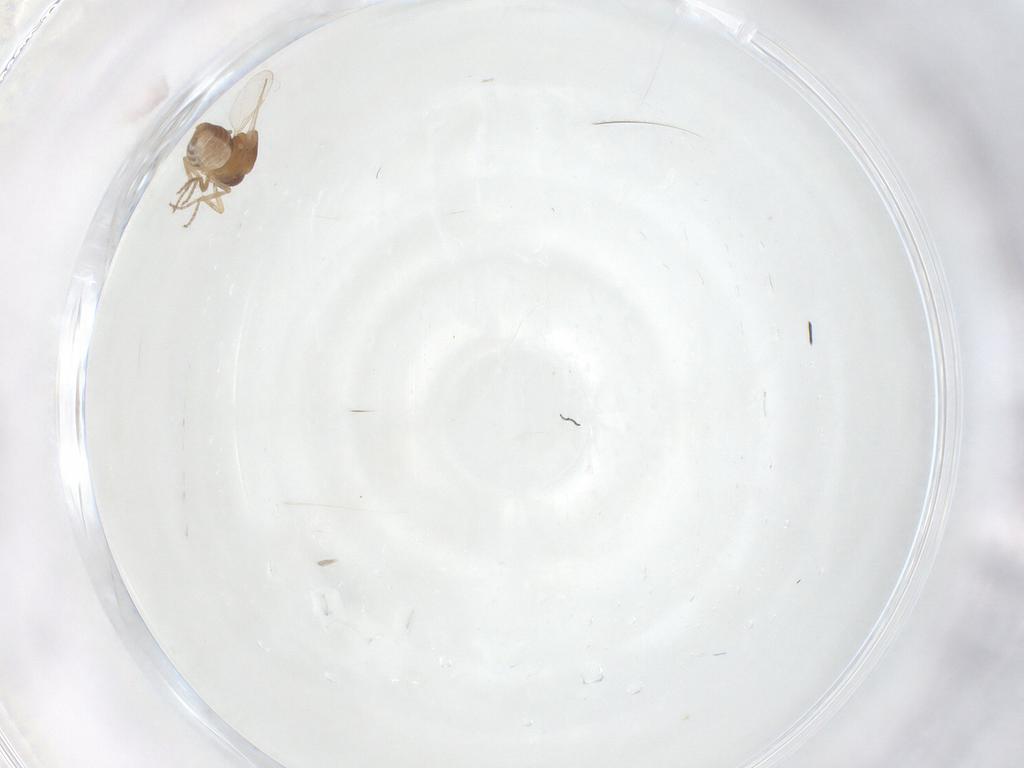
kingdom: Animalia
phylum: Arthropoda
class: Insecta
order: Diptera
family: Ceratopogonidae
